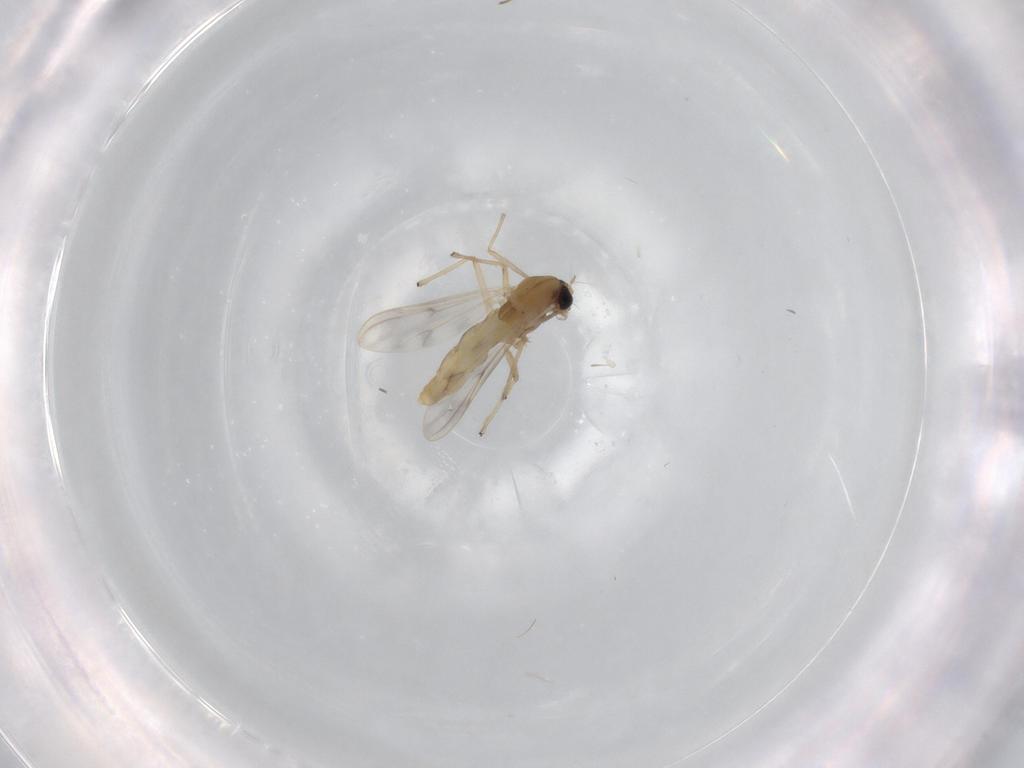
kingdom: Animalia
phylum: Arthropoda
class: Insecta
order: Diptera
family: Chironomidae
